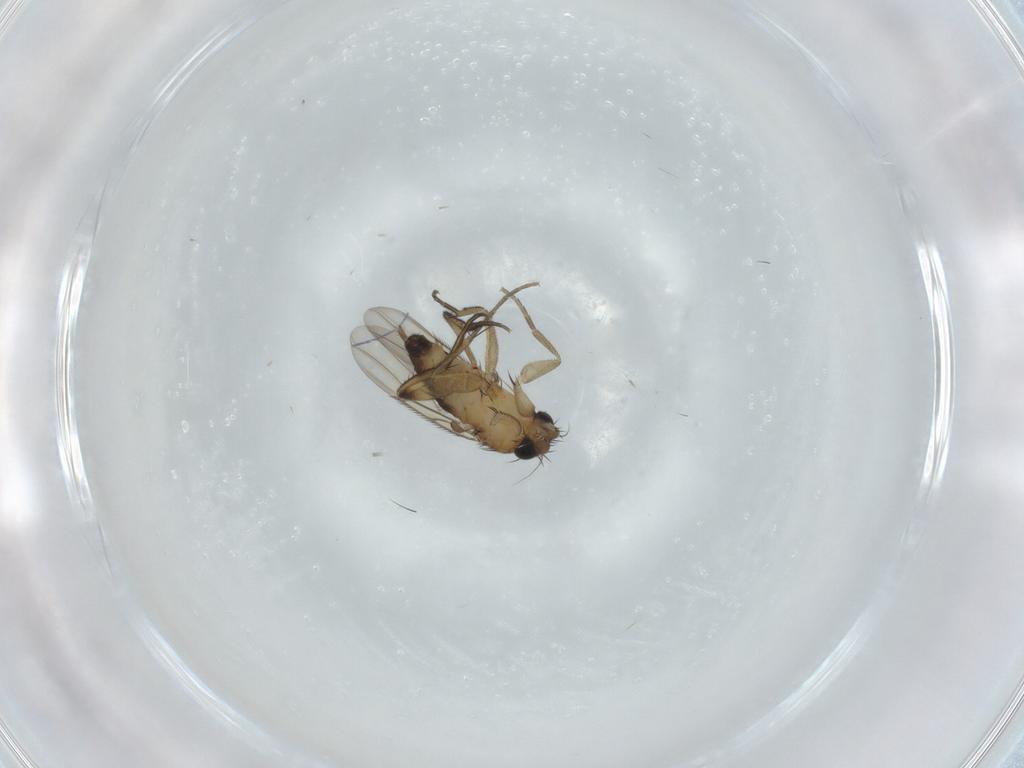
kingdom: Animalia
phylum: Arthropoda
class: Insecta
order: Diptera
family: Phoridae
